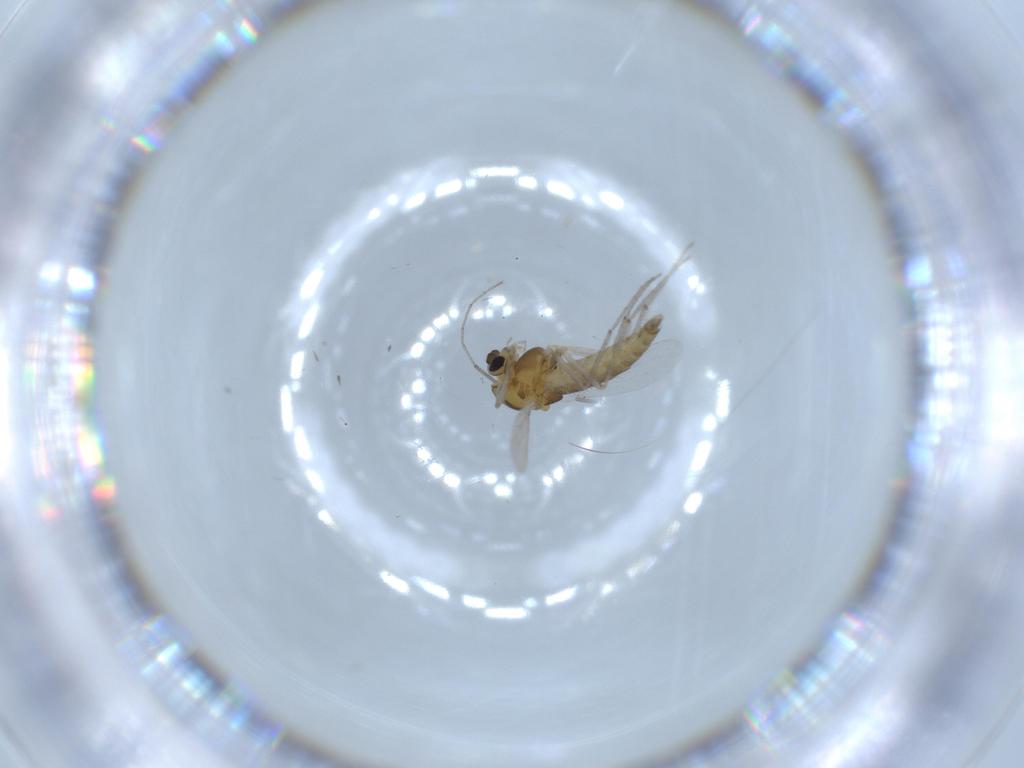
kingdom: Animalia
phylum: Arthropoda
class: Insecta
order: Diptera
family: Chironomidae
